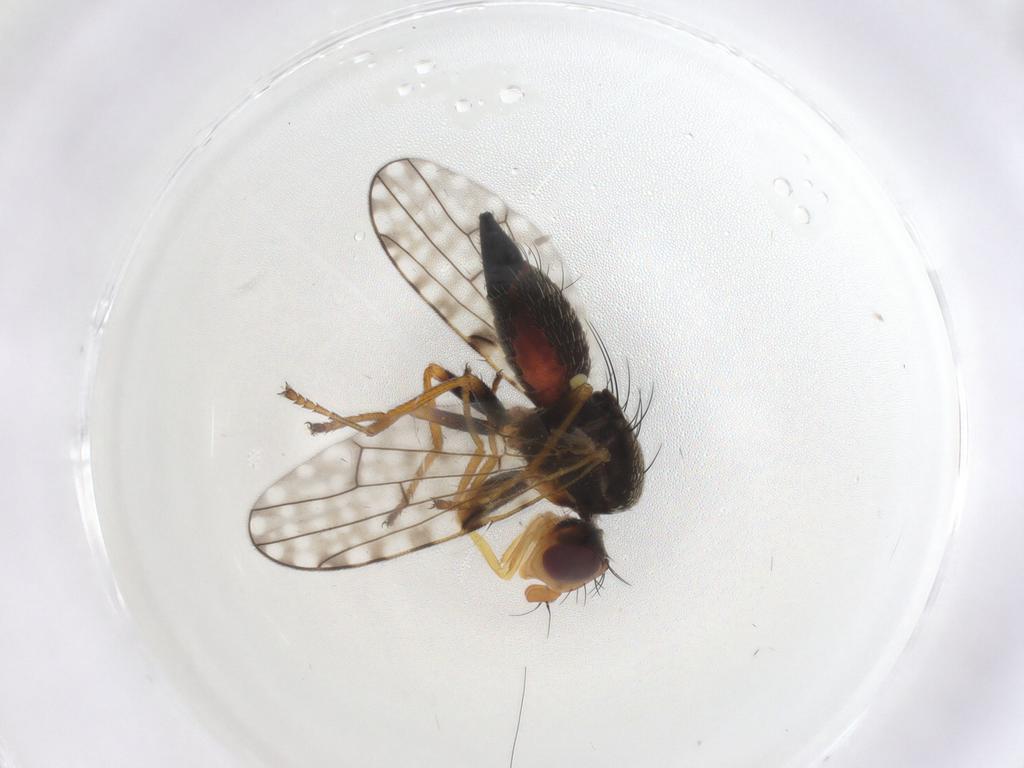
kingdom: Animalia
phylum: Arthropoda
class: Insecta
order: Diptera
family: Tephritidae
